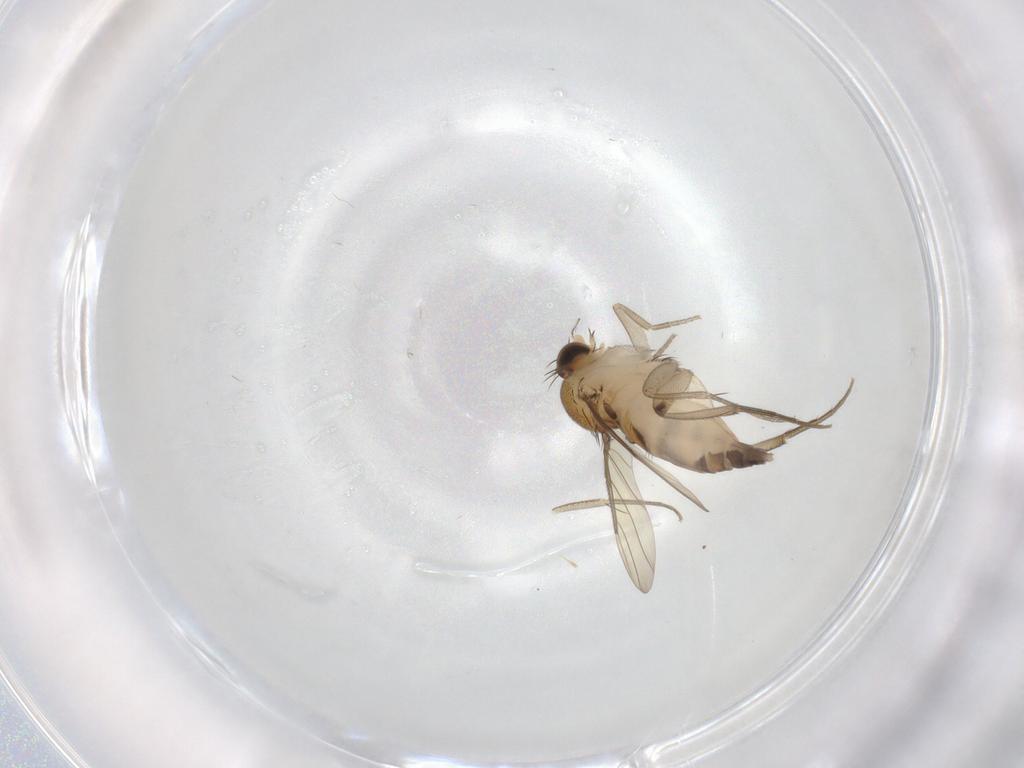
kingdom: Animalia
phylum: Arthropoda
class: Insecta
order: Diptera
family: Phoridae
